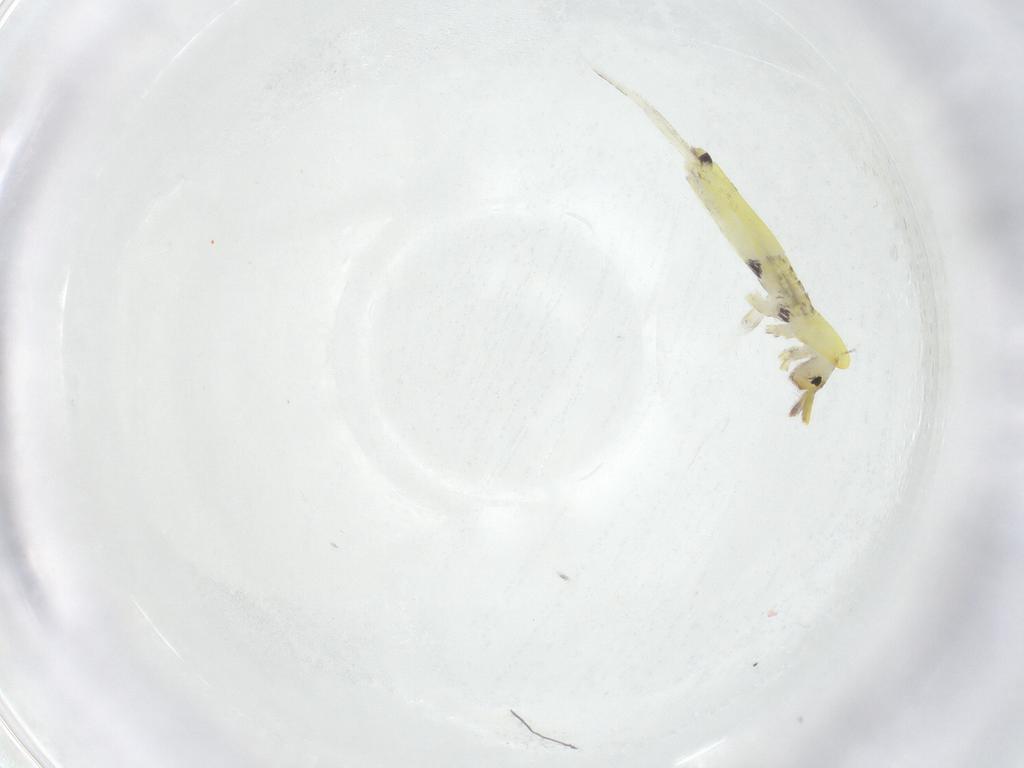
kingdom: Animalia
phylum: Arthropoda
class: Collembola
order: Entomobryomorpha
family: Entomobryidae
